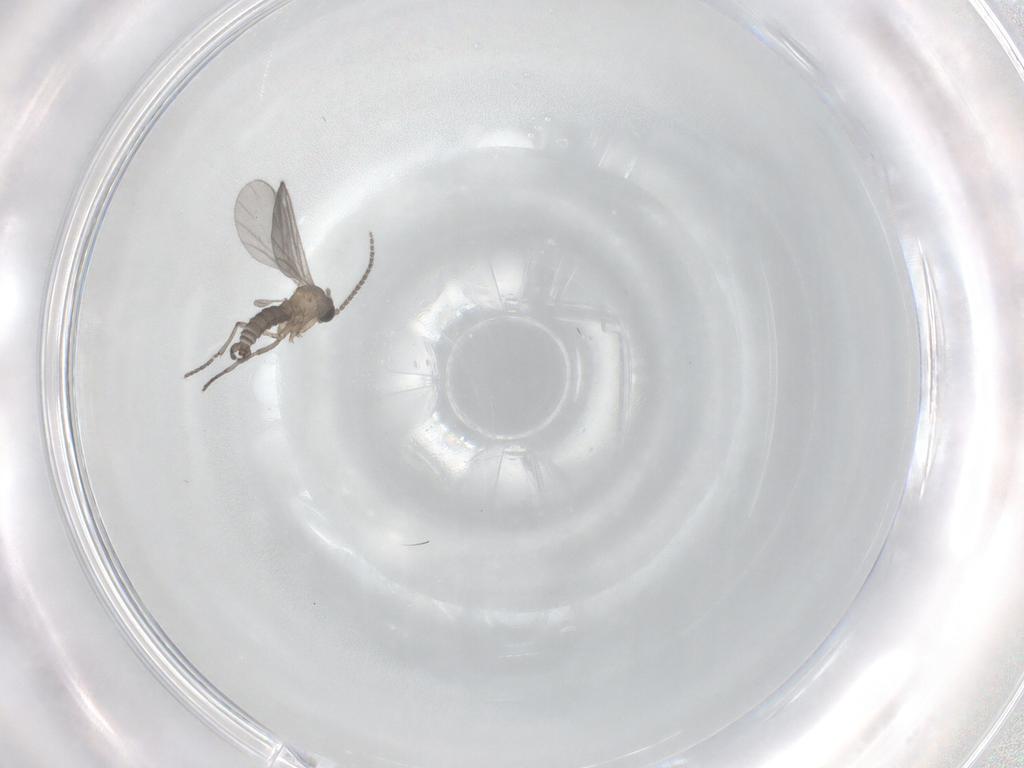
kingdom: Animalia
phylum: Arthropoda
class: Insecta
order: Diptera
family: Sciaridae
